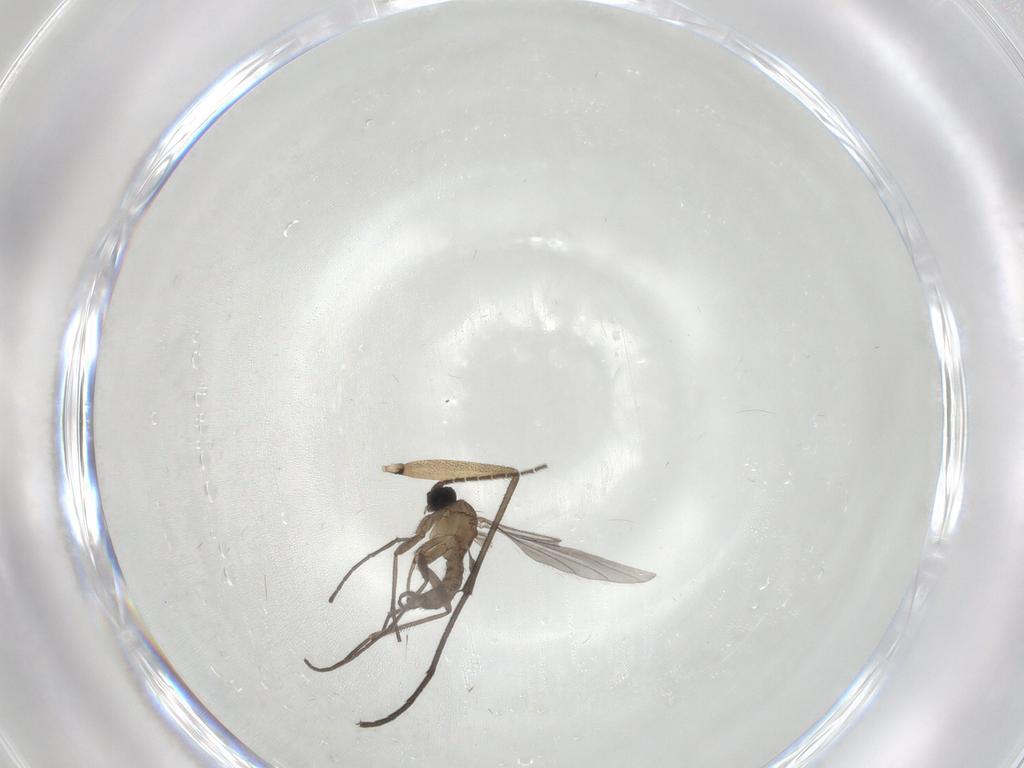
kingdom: Animalia
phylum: Arthropoda
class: Insecta
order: Diptera
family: Sciaridae
